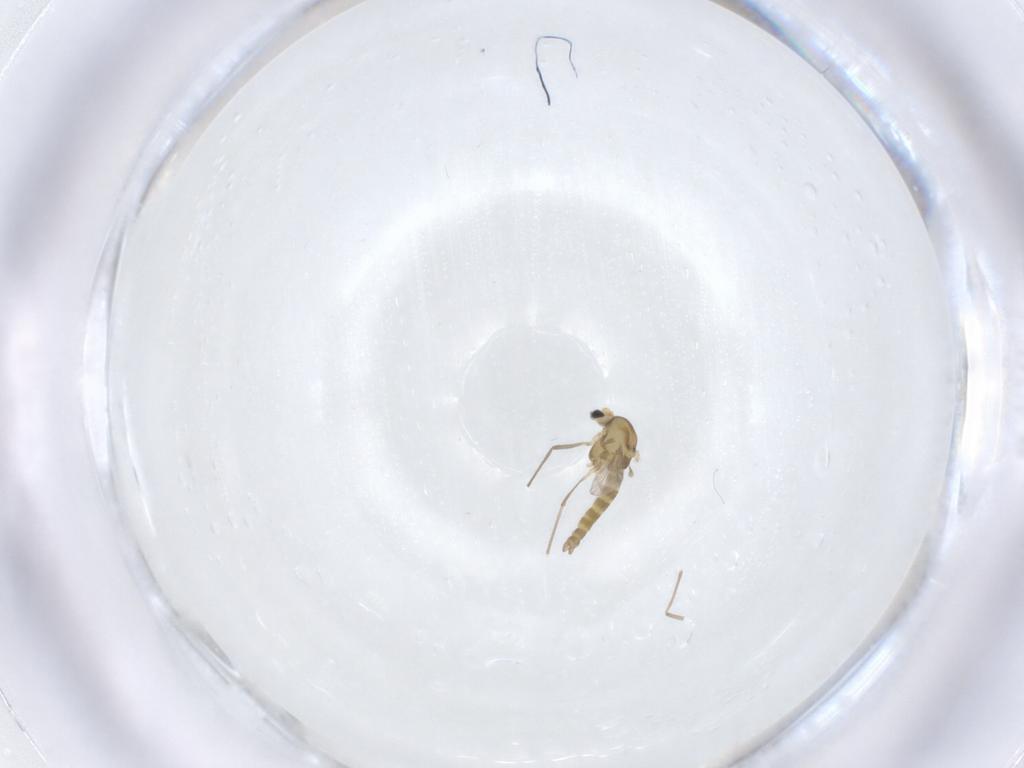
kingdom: Animalia
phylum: Arthropoda
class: Insecta
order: Diptera
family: Chironomidae
